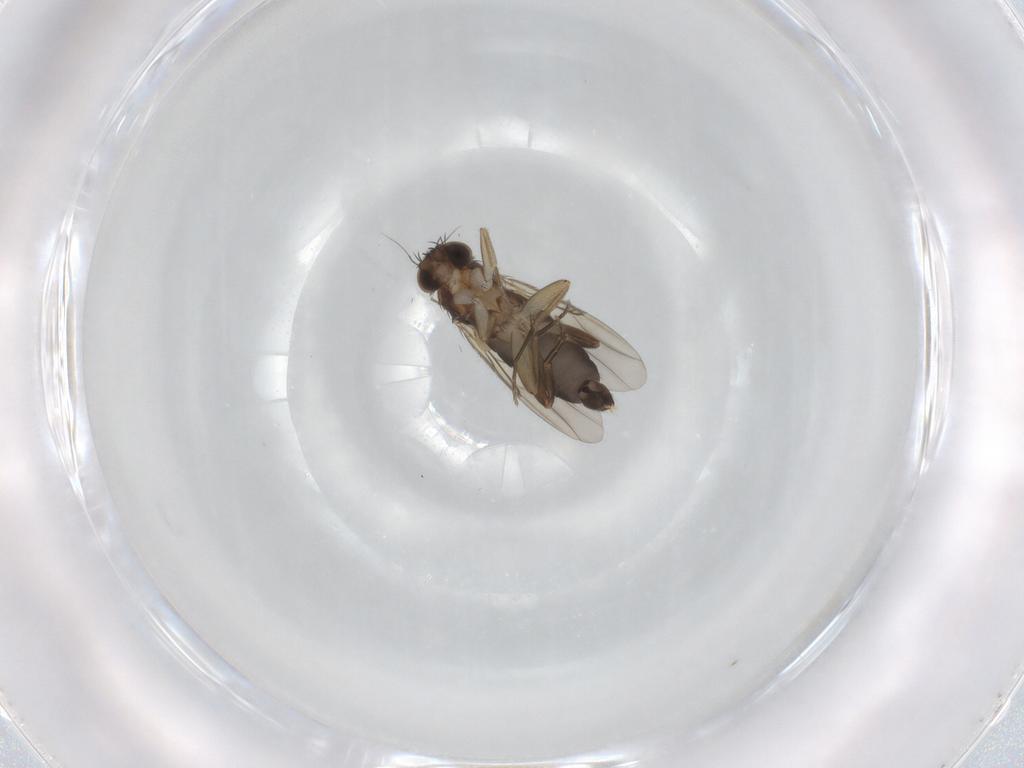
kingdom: Animalia
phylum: Arthropoda
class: Insecta
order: Diptera
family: Phoridae
